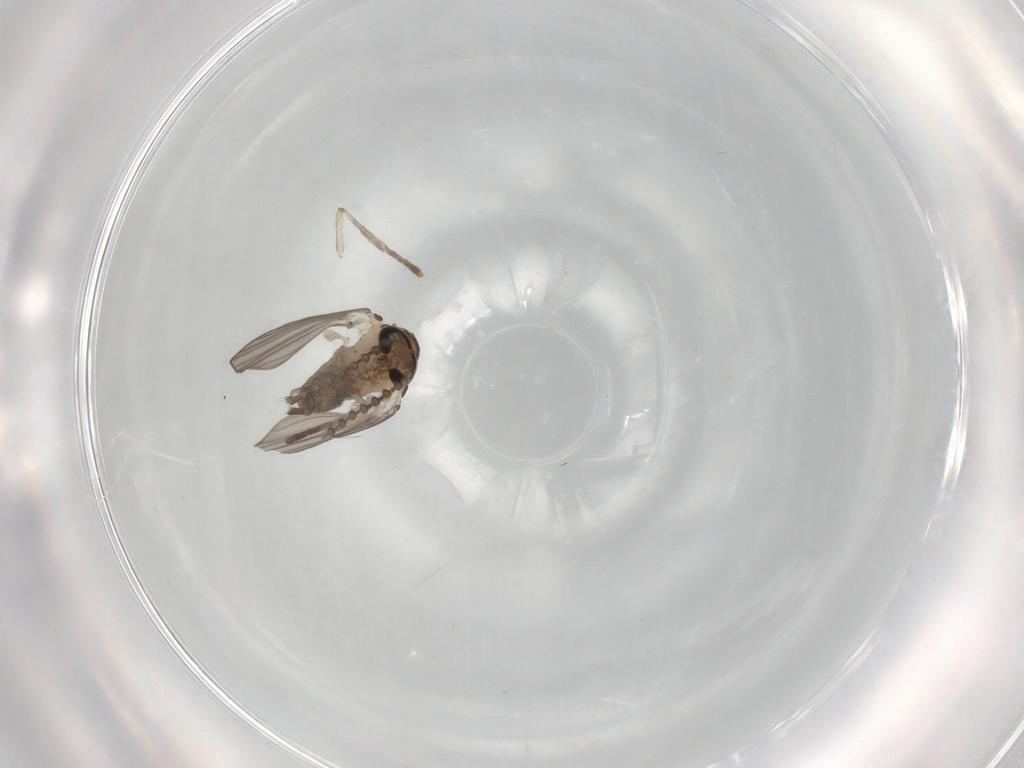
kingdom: Animalia
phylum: Arthropoda
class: Insecta
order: Diptera
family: Psychodidae
